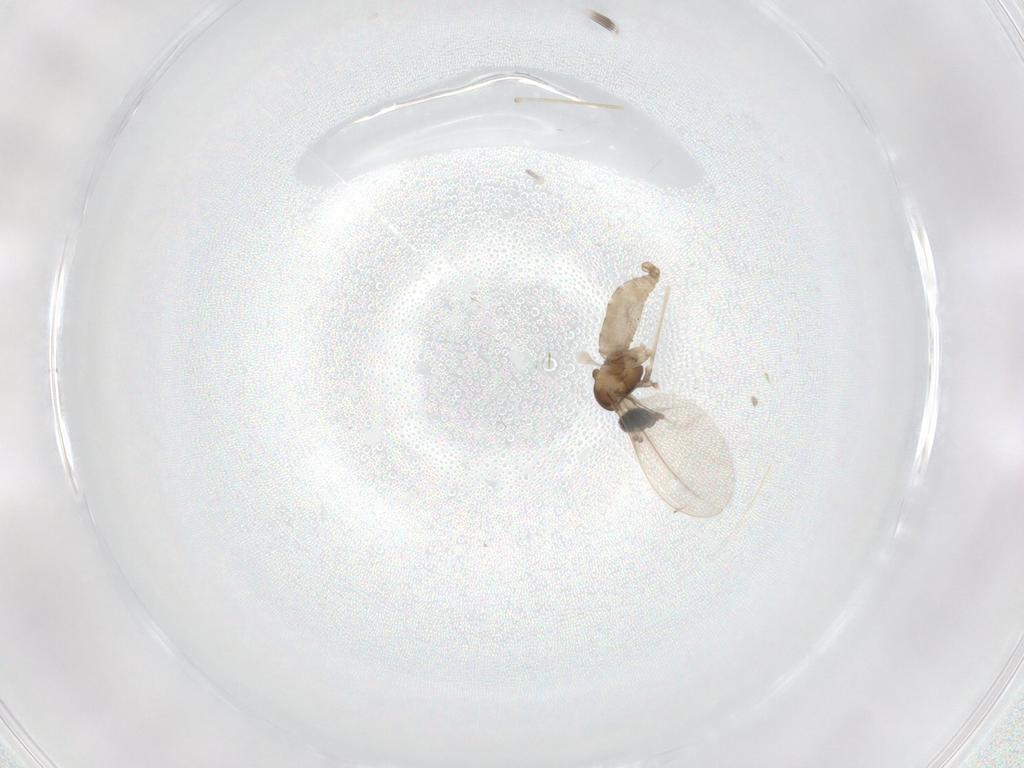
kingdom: Animalia
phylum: Arthropoda
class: Insecta
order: Diptera
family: Cecidomyiidae
